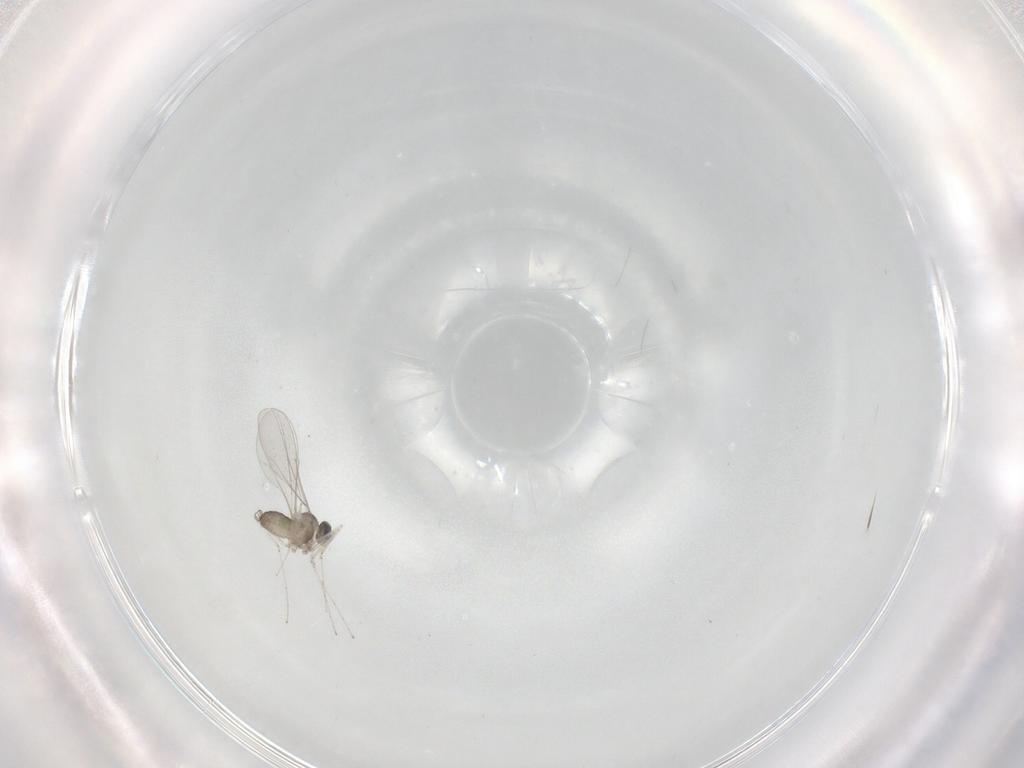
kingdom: Animalia
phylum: Arthropoda
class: Insecta
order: Diptera
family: Cecidomyiidae
